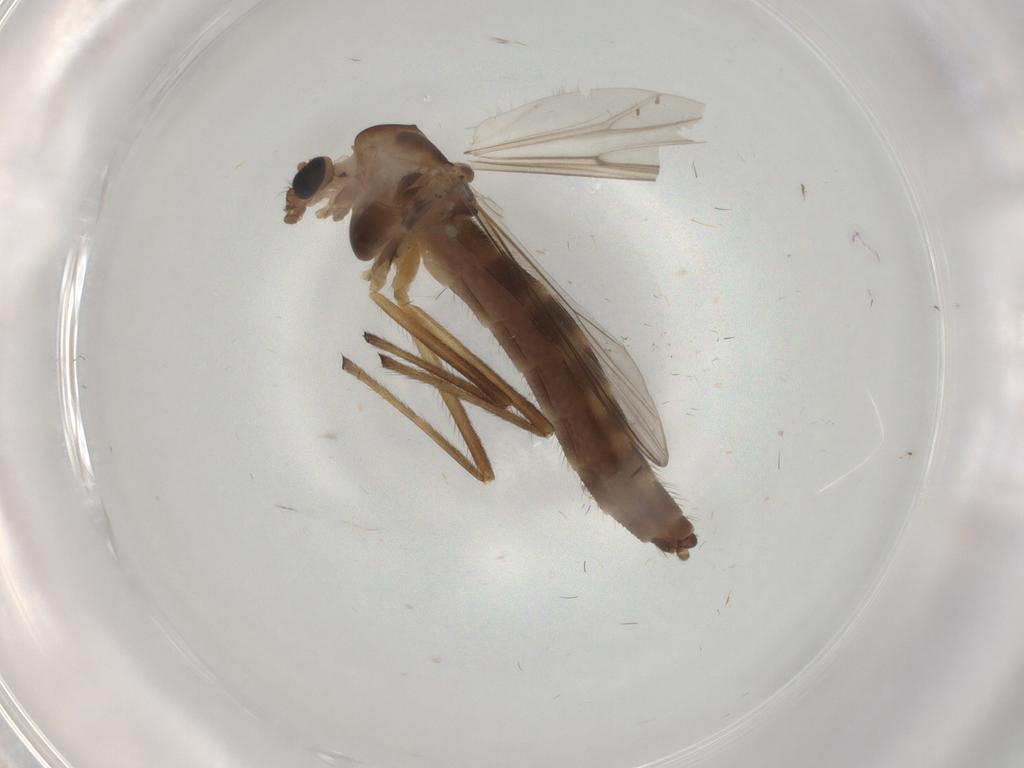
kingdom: Animalia
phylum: Arthropoda
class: Insecta
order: Diptera
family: Chironomidae
